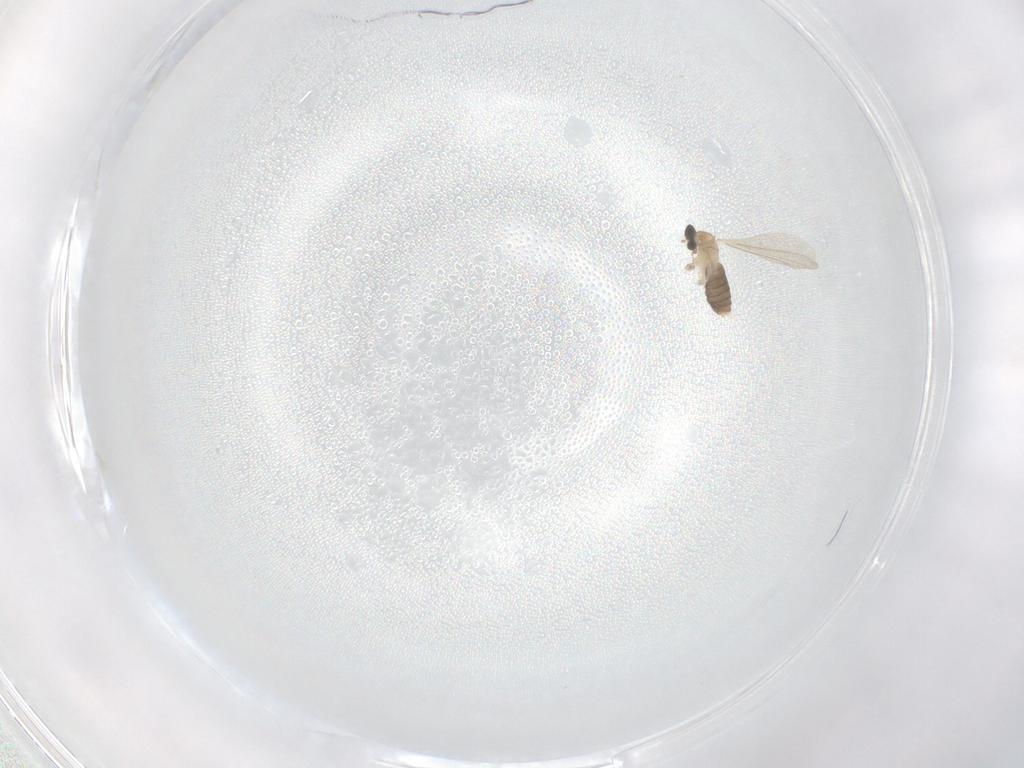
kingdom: Animalia
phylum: Arthropoda
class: Insecta
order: Diptera
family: Cecidomyiidae
